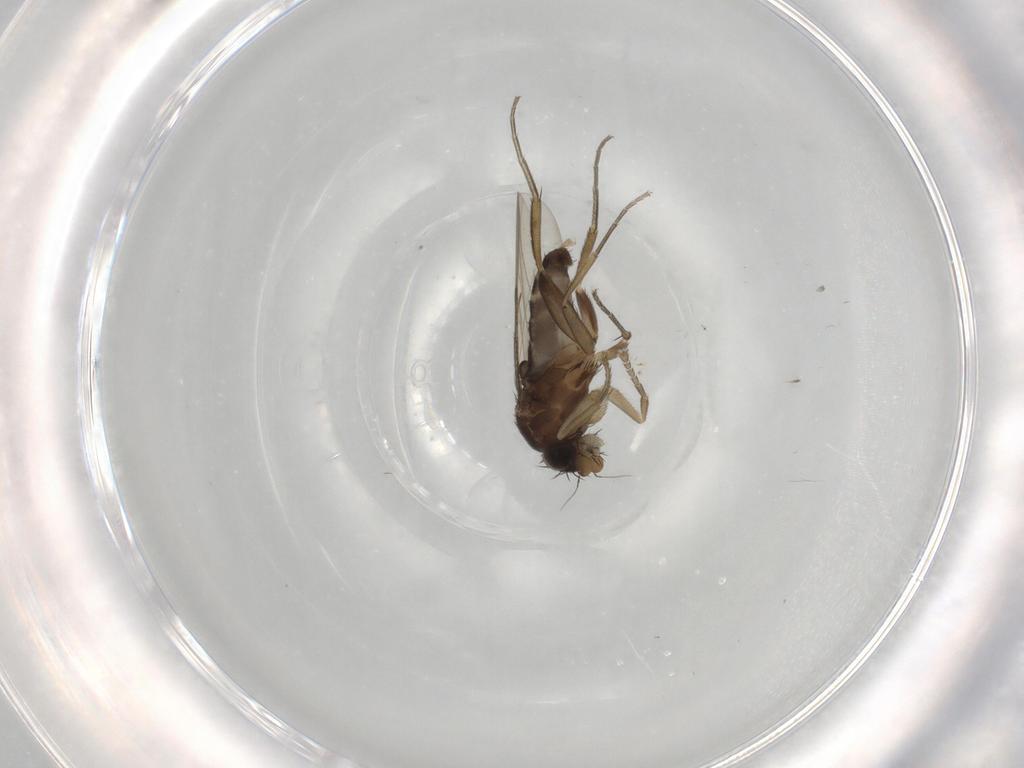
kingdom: Animalia
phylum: Arthropoda
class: Insecta
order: Diptera
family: Phoridae
